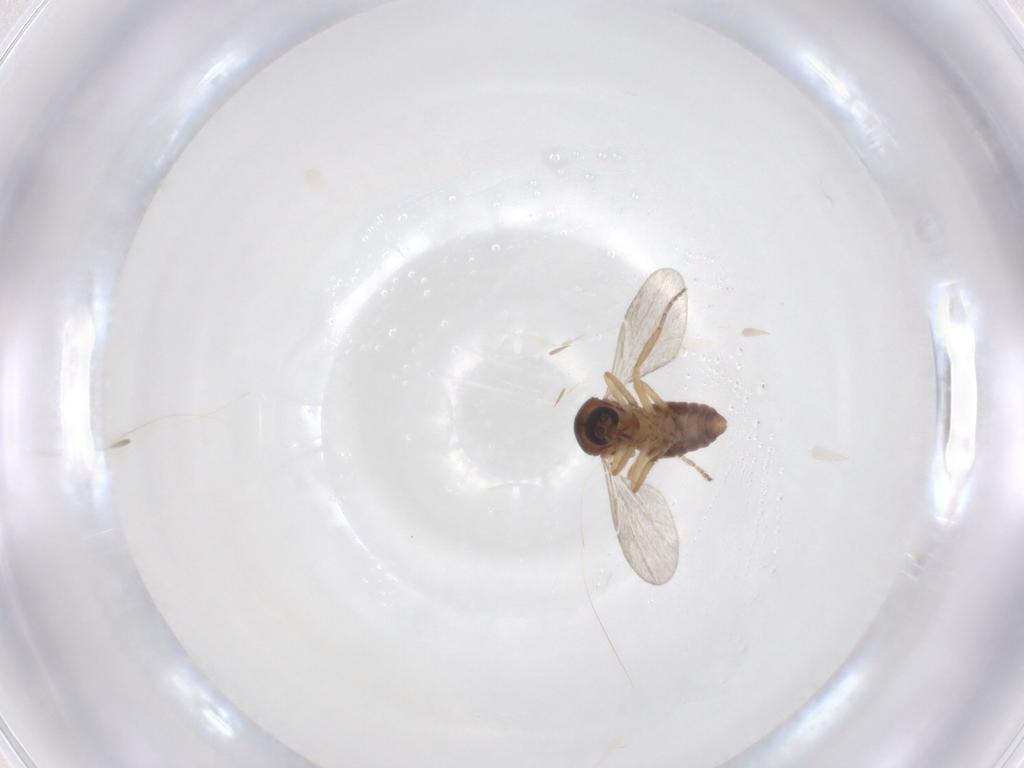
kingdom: Animalia
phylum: Arthropoda
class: Insecta
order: Diptera
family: Ceratopogonidae
